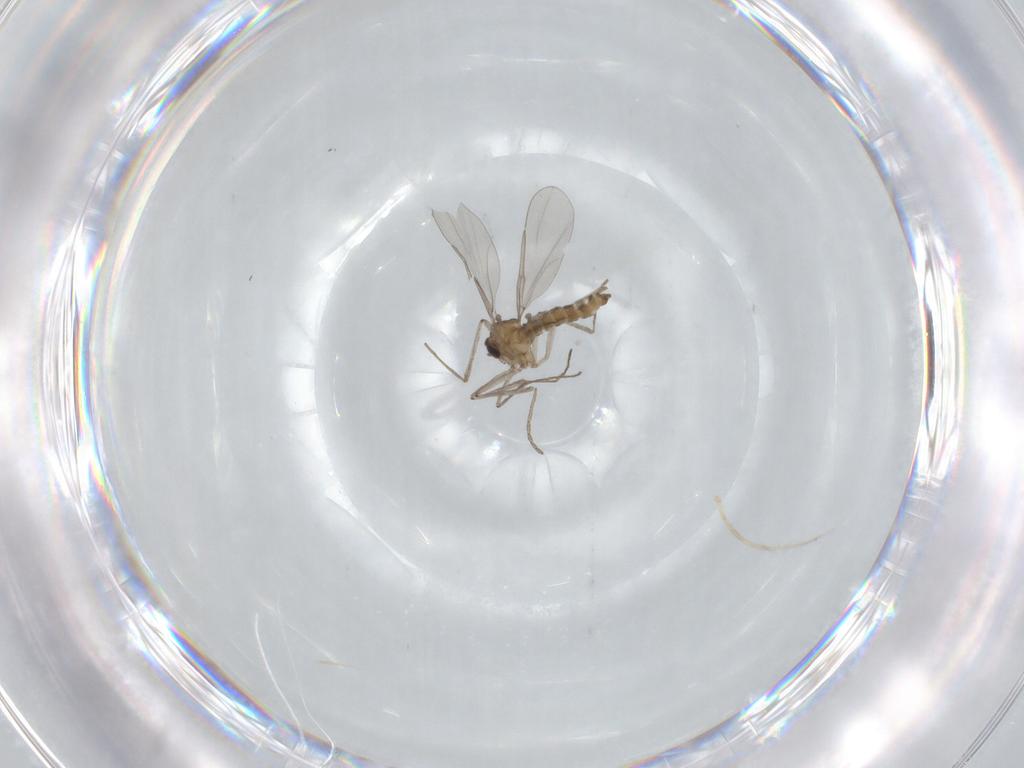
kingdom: Animalia
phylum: Arthropoda
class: Insecta
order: Diptera
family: Cecidomyiidae
